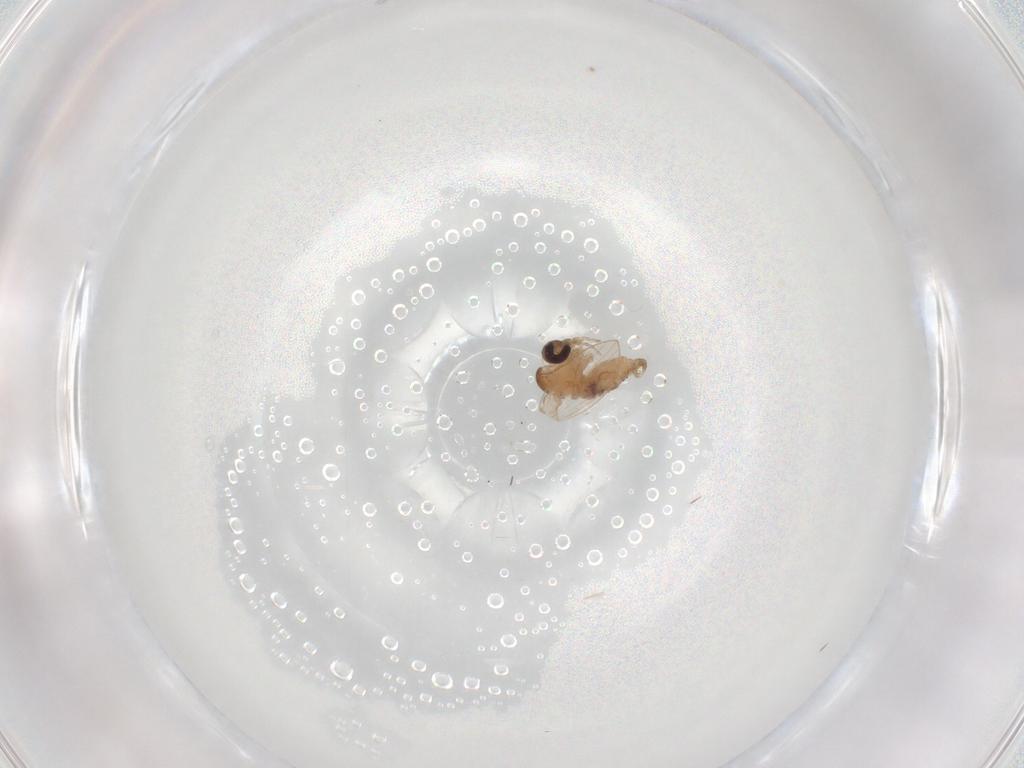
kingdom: Animalia
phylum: Arthropoda
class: Insecta
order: Diptera
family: Psychodidae
